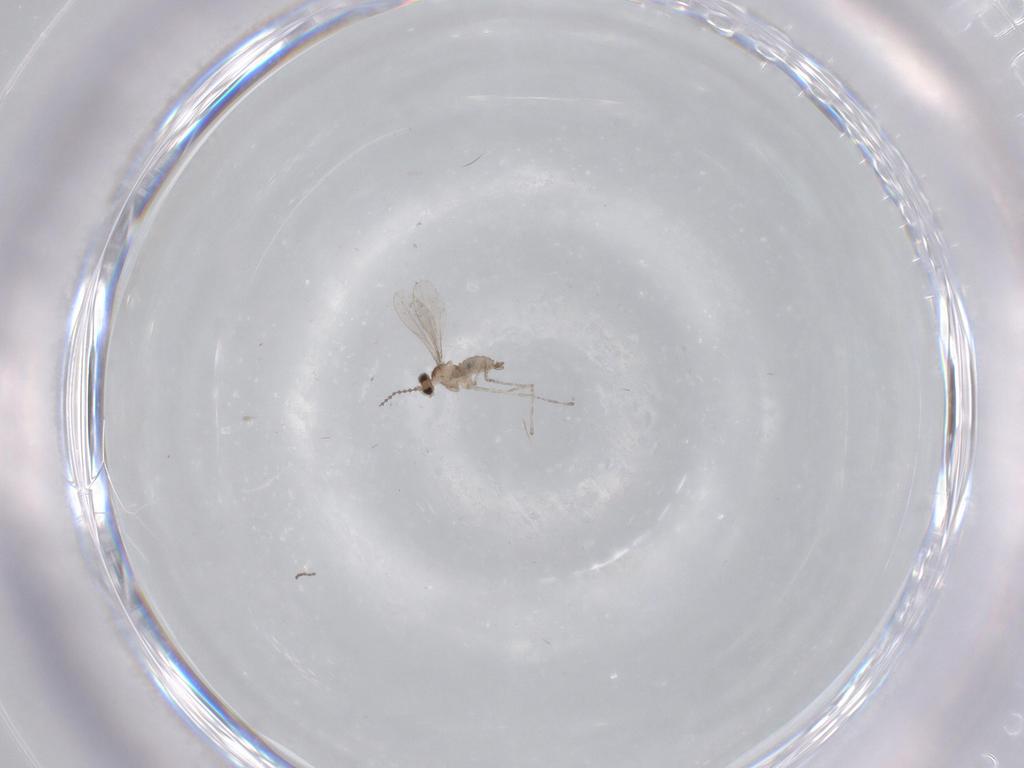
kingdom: Animalia
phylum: Arthropoda
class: Insecta
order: Diptera
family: Cecidomyiidae
